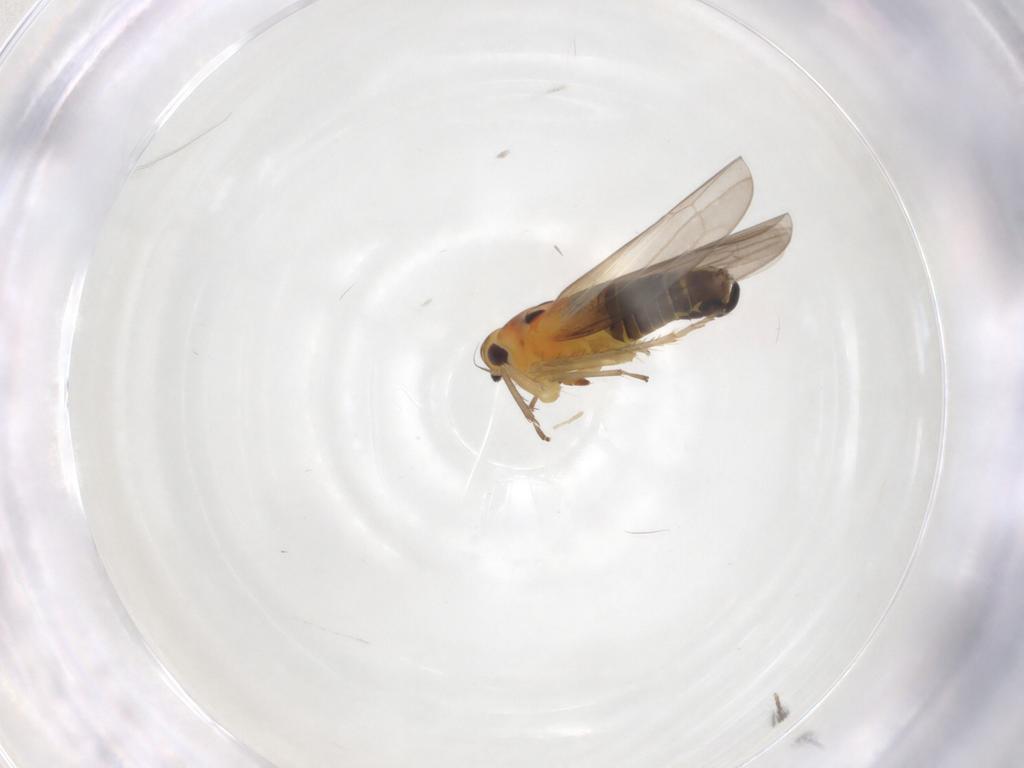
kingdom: Animalia
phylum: Arthropoda
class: Insecta
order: Hemiptera
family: Cicadellidae
